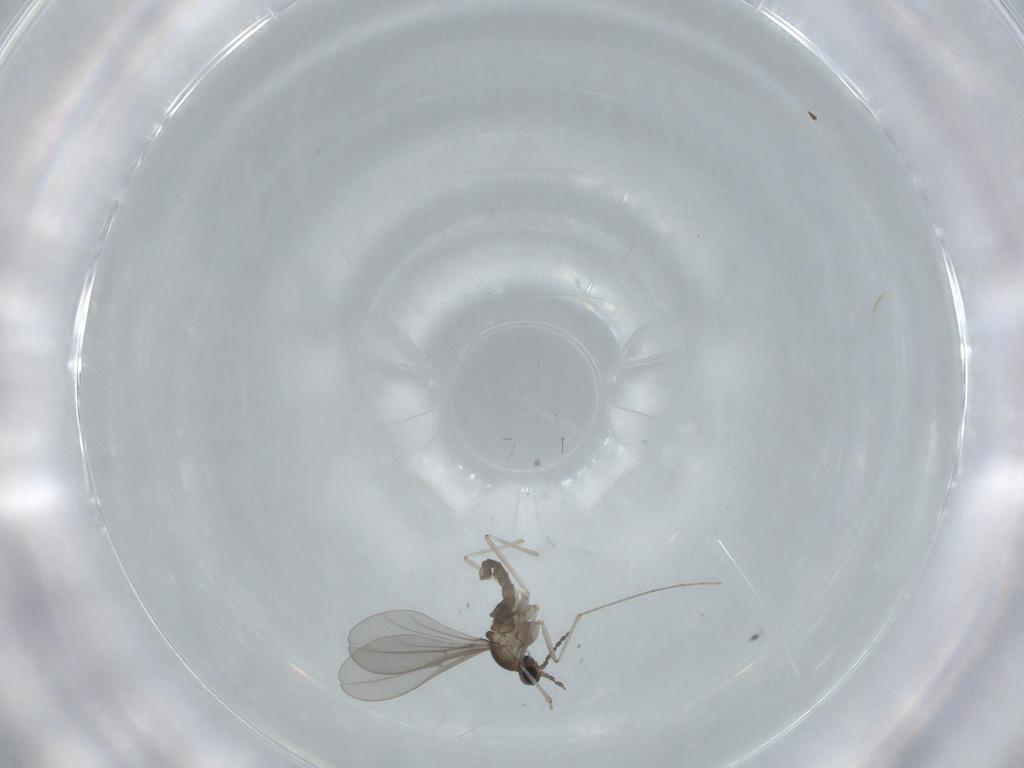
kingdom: Animalia
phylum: Arthropoda
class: Insecta
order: Diptera
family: Cecidomyiidae
